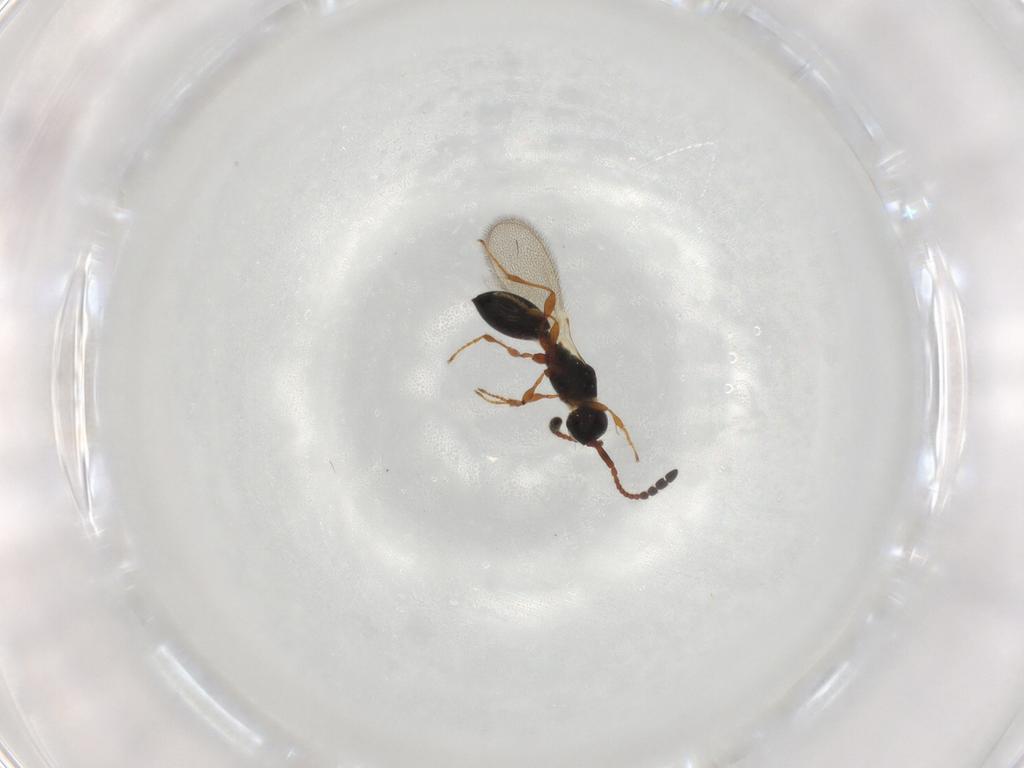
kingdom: Animalia
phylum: Arthropoda
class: Insecta
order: Hymenoptera
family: Diapriidae
